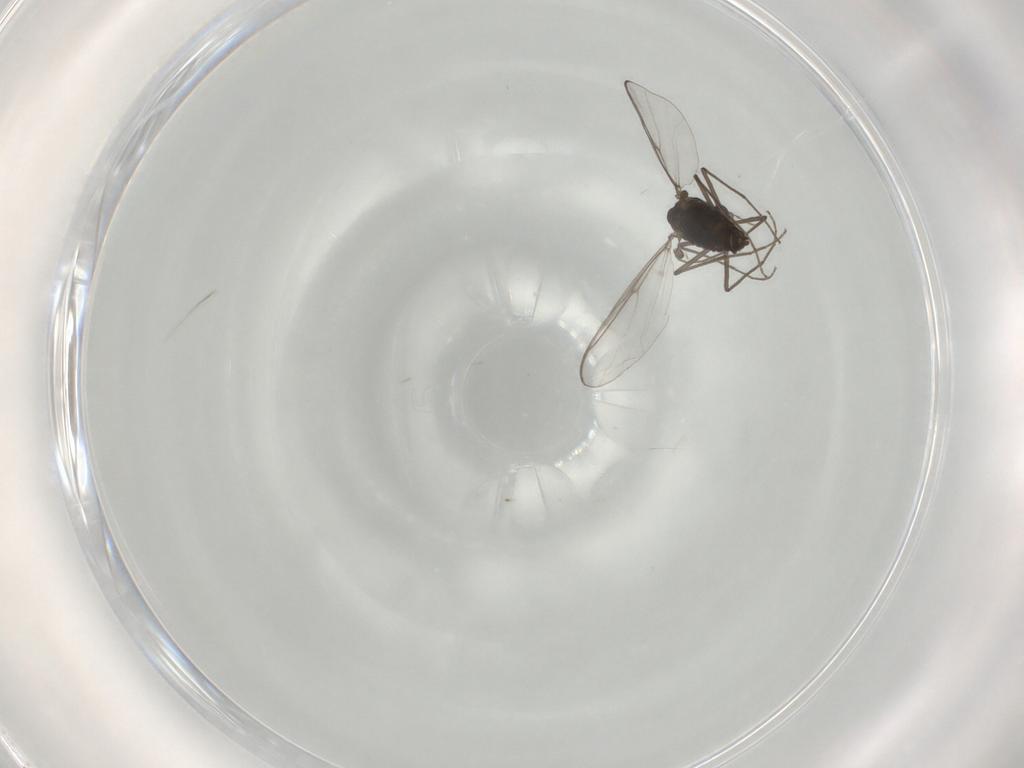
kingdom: Animalia
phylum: Arthropoda
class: Insecta
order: Diptera
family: Chironomidae
